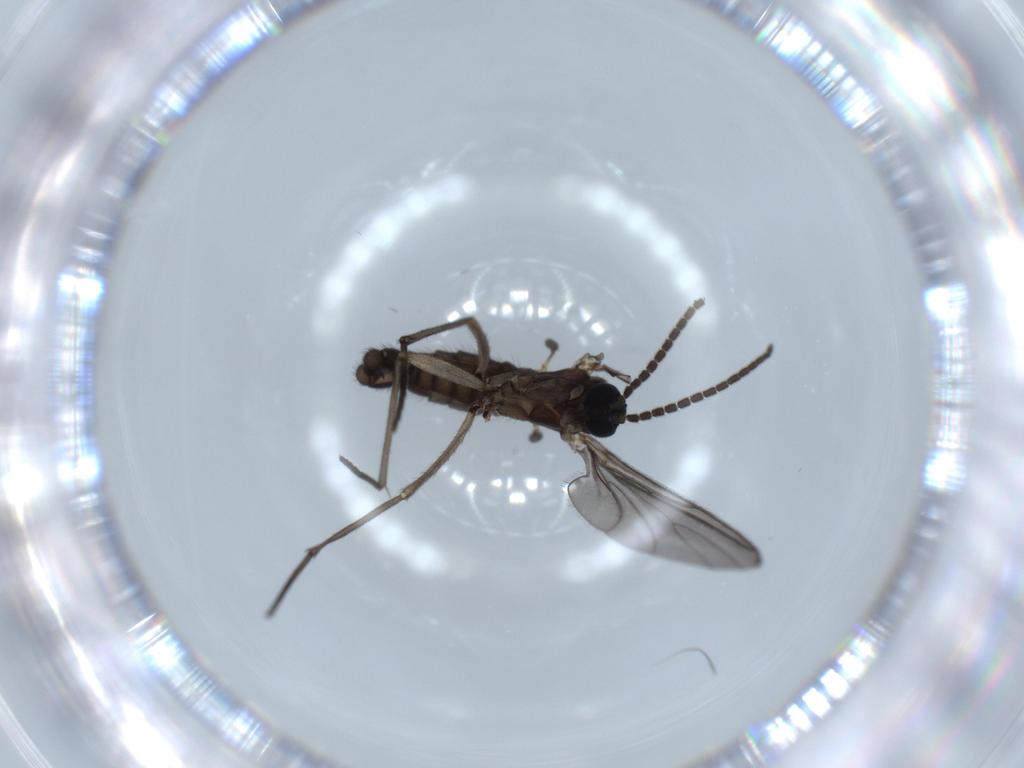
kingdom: Animalia
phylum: Arthropoda
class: Insecta
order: Diptera
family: Sciaridae
